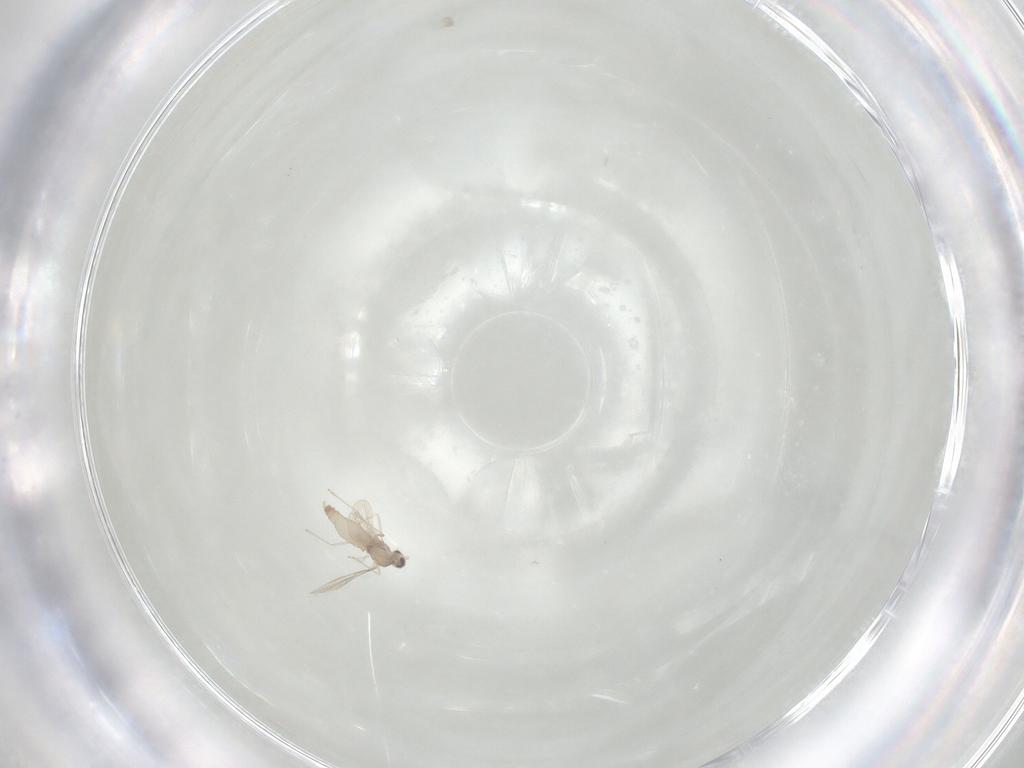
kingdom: Animalia
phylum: Arthropoda
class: Insecta
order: Diptera
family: Sciaridae
